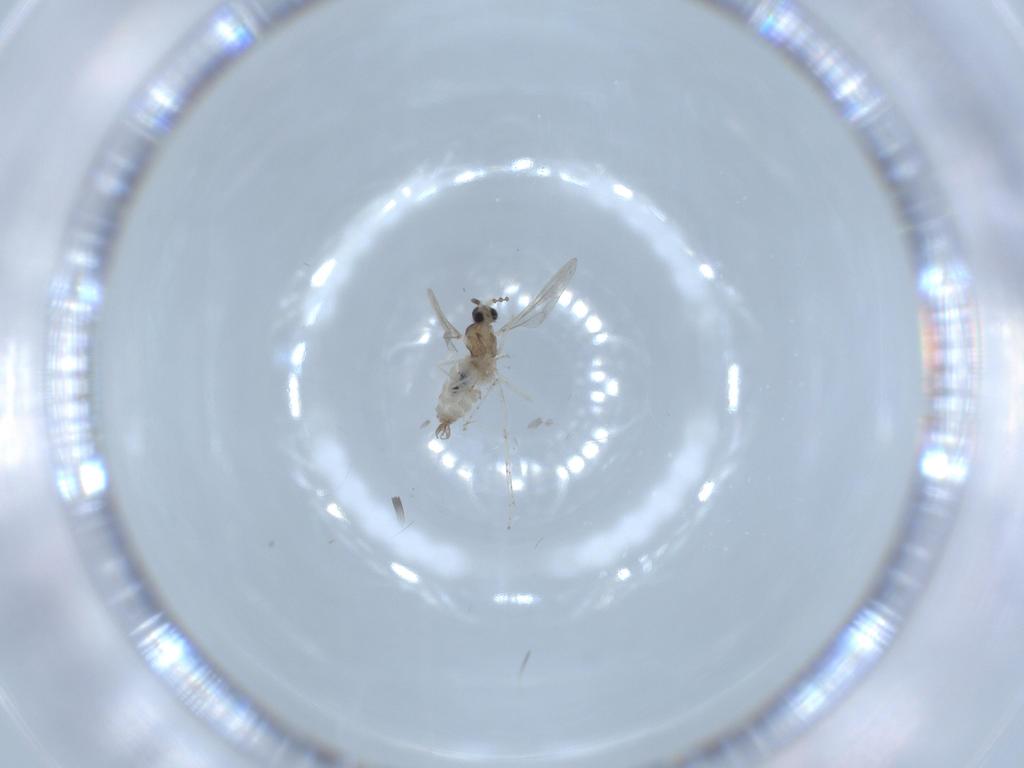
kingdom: Animalia
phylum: Arthropoda
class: Insecta
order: Diptera
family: Cecidomyiidae
